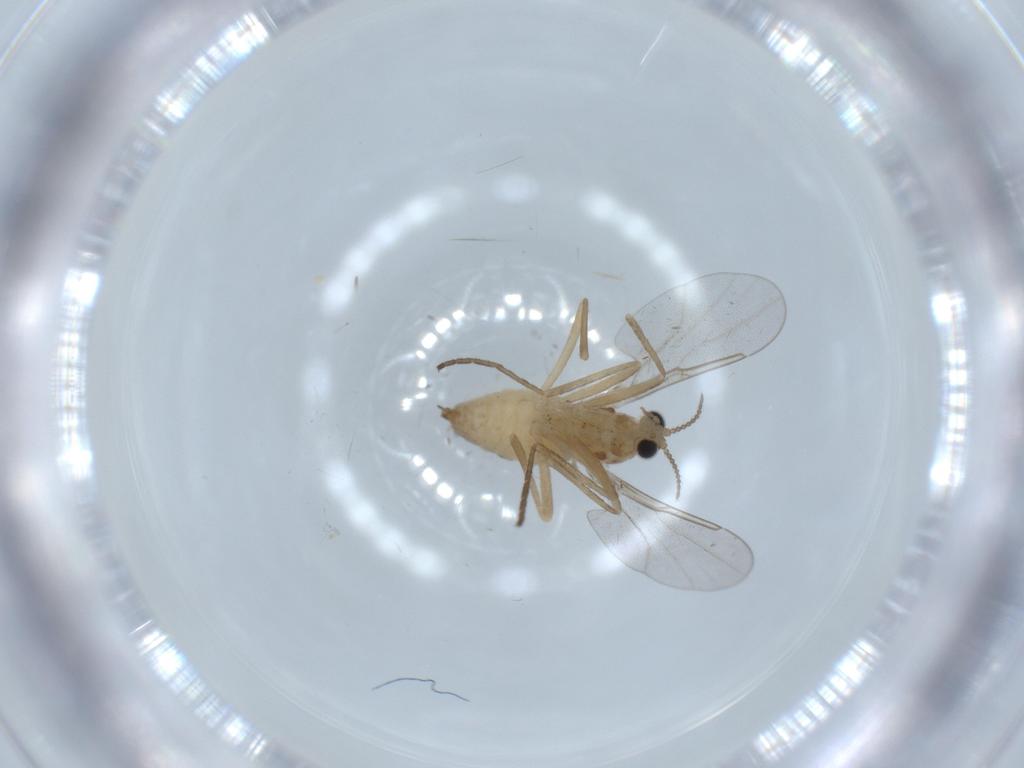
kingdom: Animalia
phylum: Arthropoda
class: Insecta
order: Diptera
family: Cecidomyiidae
